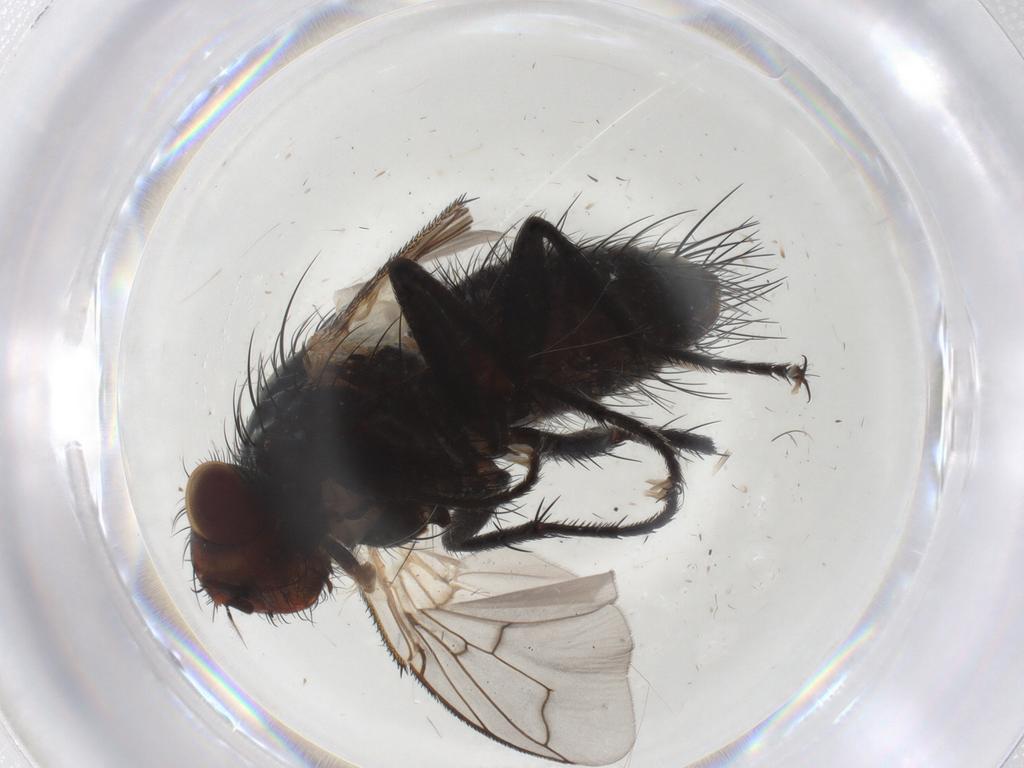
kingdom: Animalia
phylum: Arthropoda
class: Insecta
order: Diptera
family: Tachinidae
